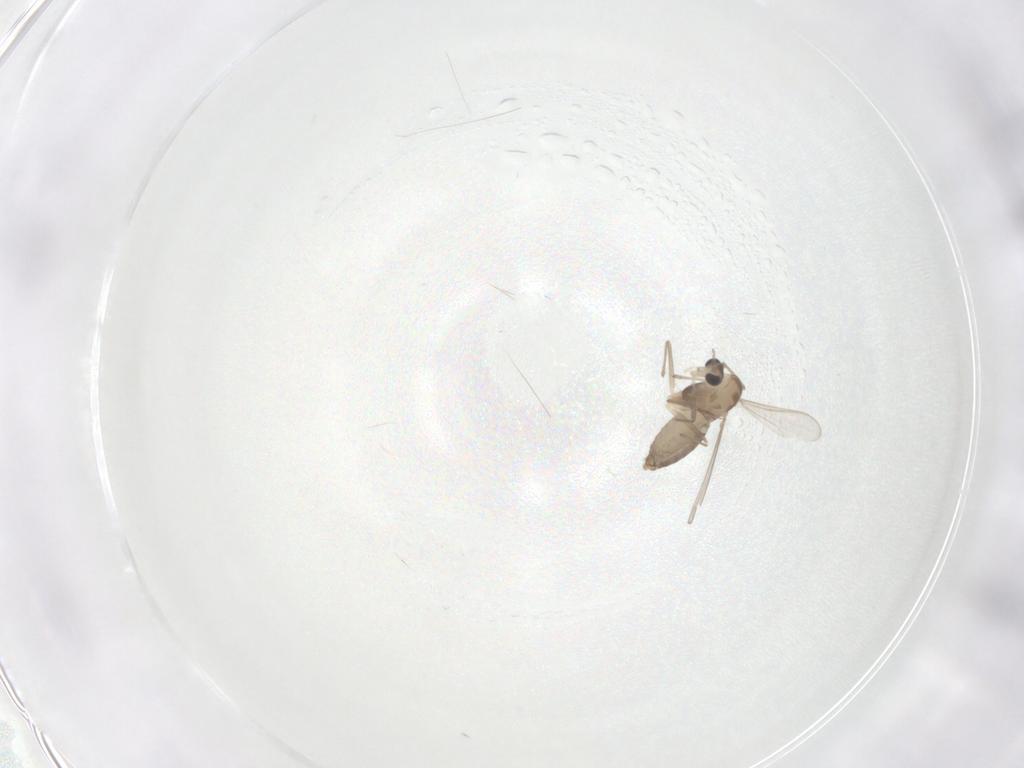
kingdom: Animalia
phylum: Arthropoda
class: Insecta
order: Diptera
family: Chironomidae
